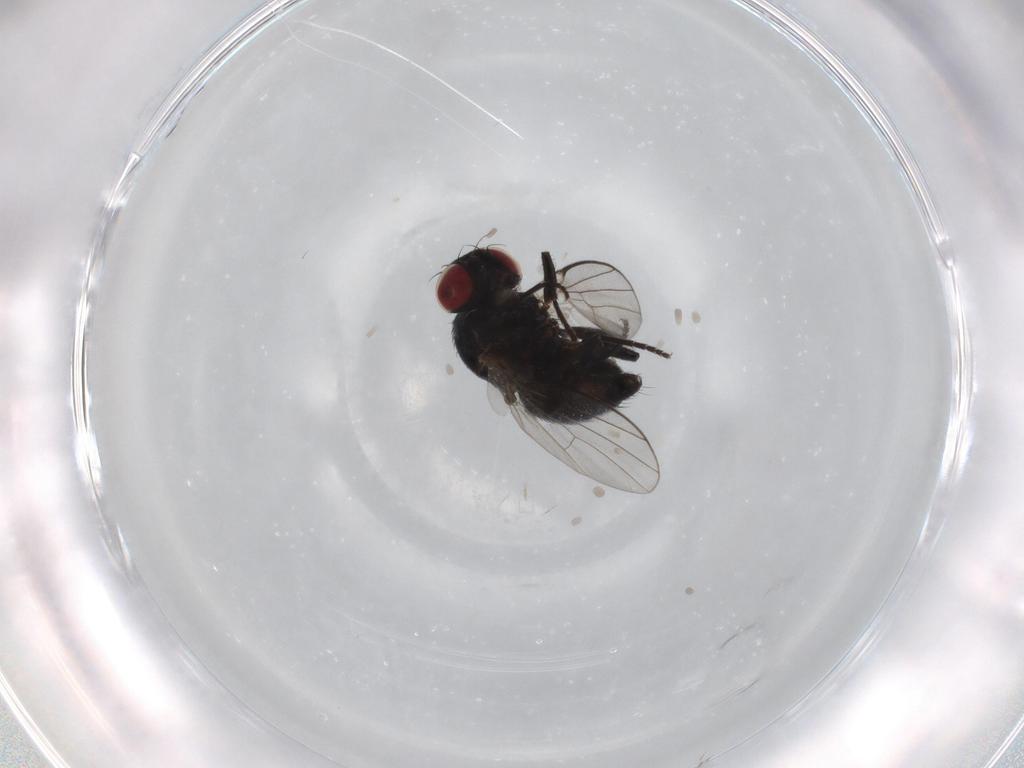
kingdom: Animalia
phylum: Arthropoda
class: Insecta
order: Diptera
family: Agromyzidae
